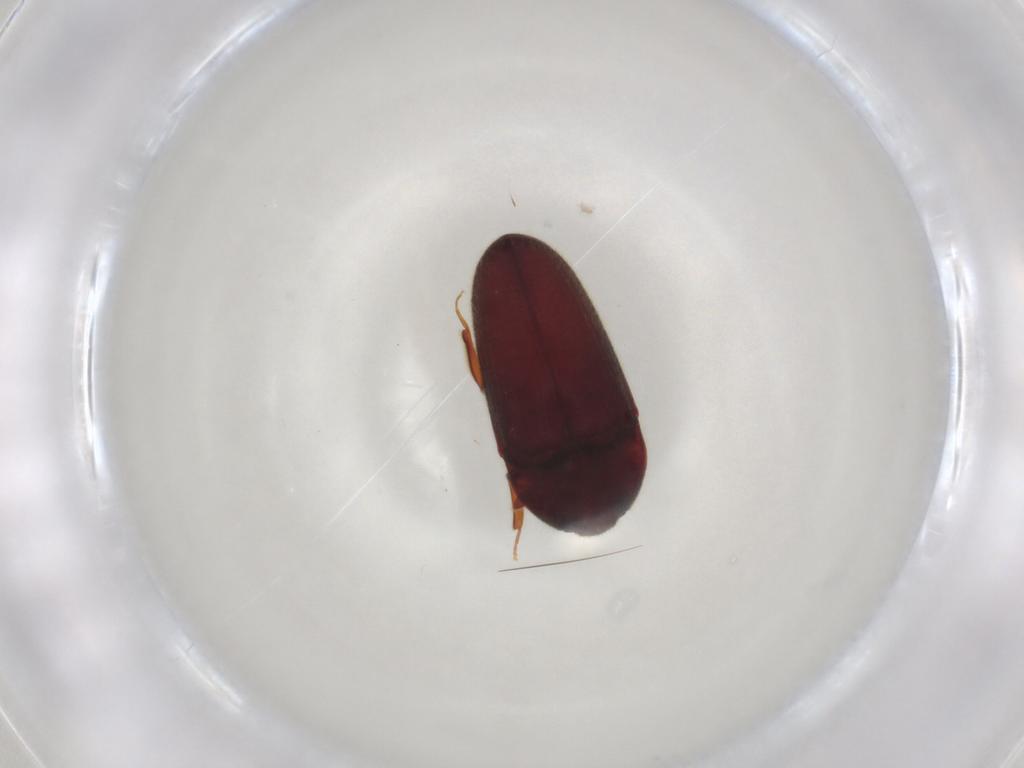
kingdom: Animalia
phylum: Arthropoda
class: Insecta
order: Coleoptera
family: Throscidae
